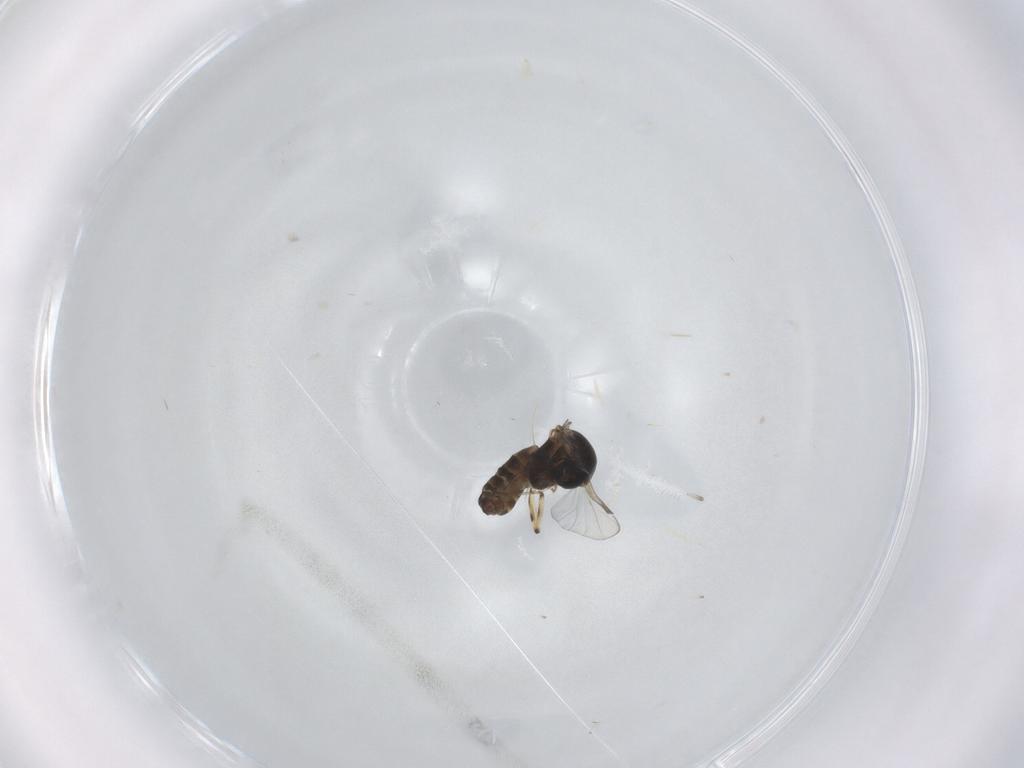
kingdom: Animalia
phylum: Arthropoda
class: Insecta
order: Diptera
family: Ceratopogonidae
